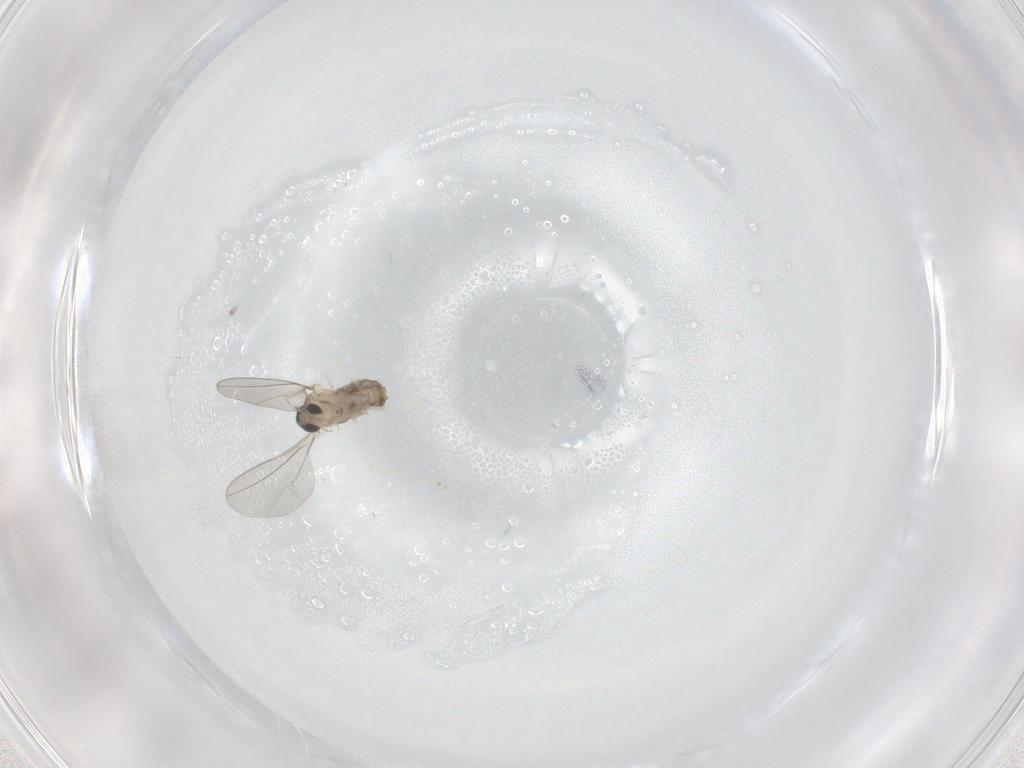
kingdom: Animalia
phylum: Arthropoda
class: Insecta
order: Diptera
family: Cecidomyiidae
